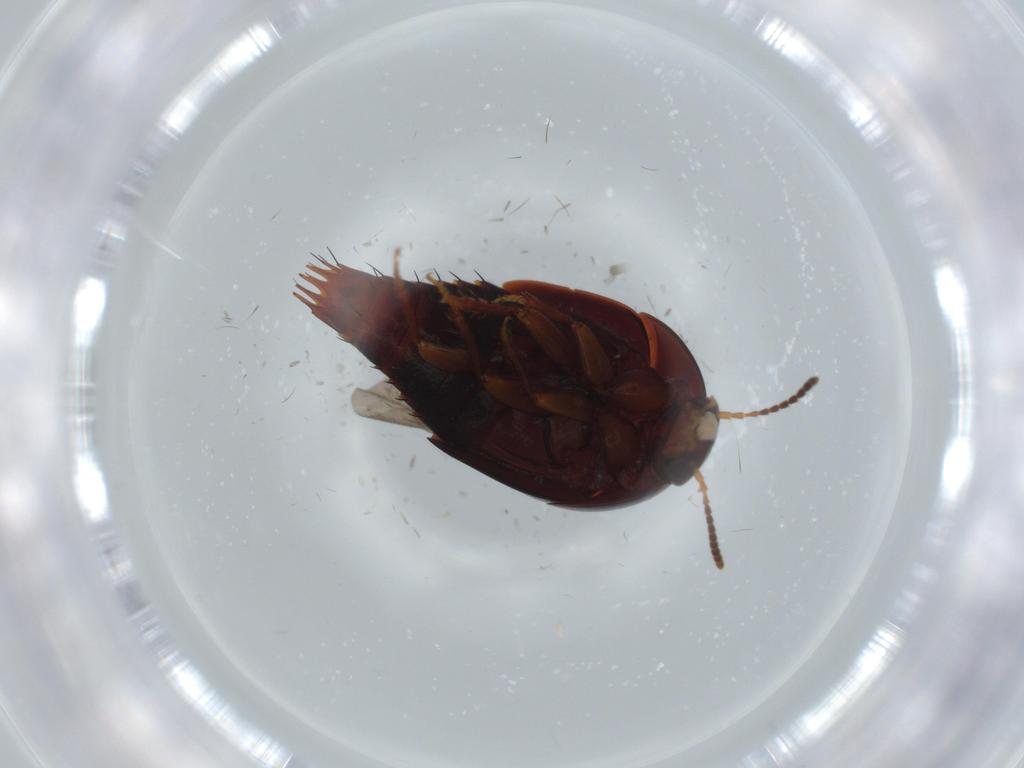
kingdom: Animalia
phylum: Arthropoda
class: Insecta
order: Coleoptera
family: Staphylinidae
